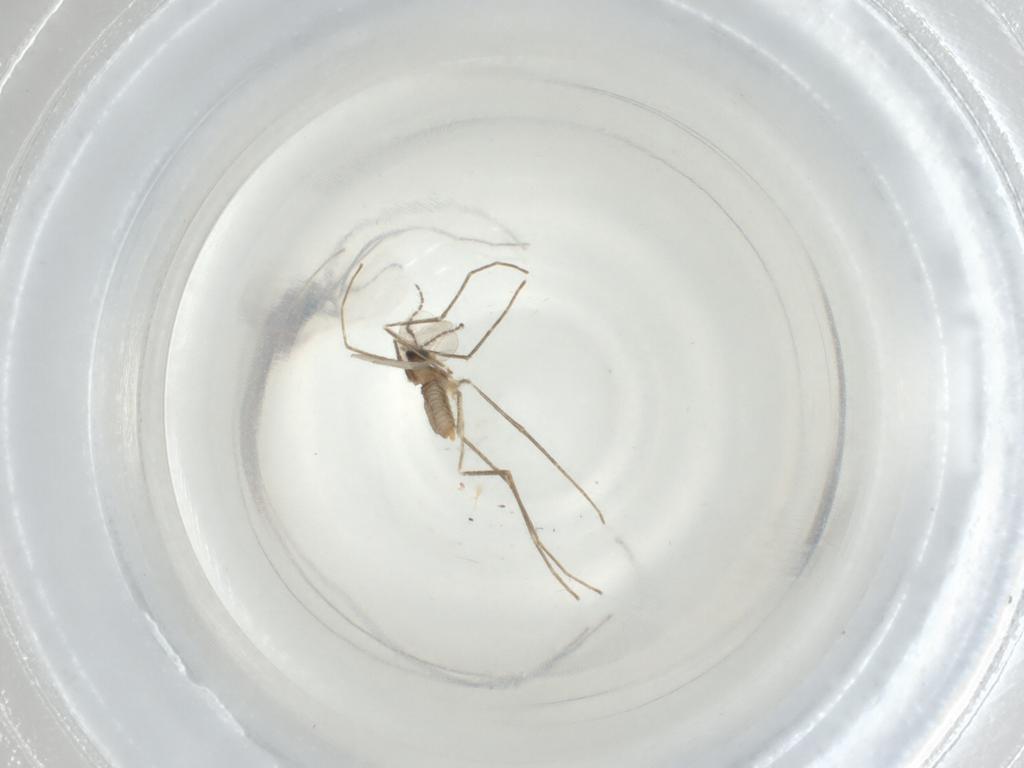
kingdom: Animalia
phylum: Arthropoda
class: Insecta
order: Diptera
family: Cecidomyiidae
